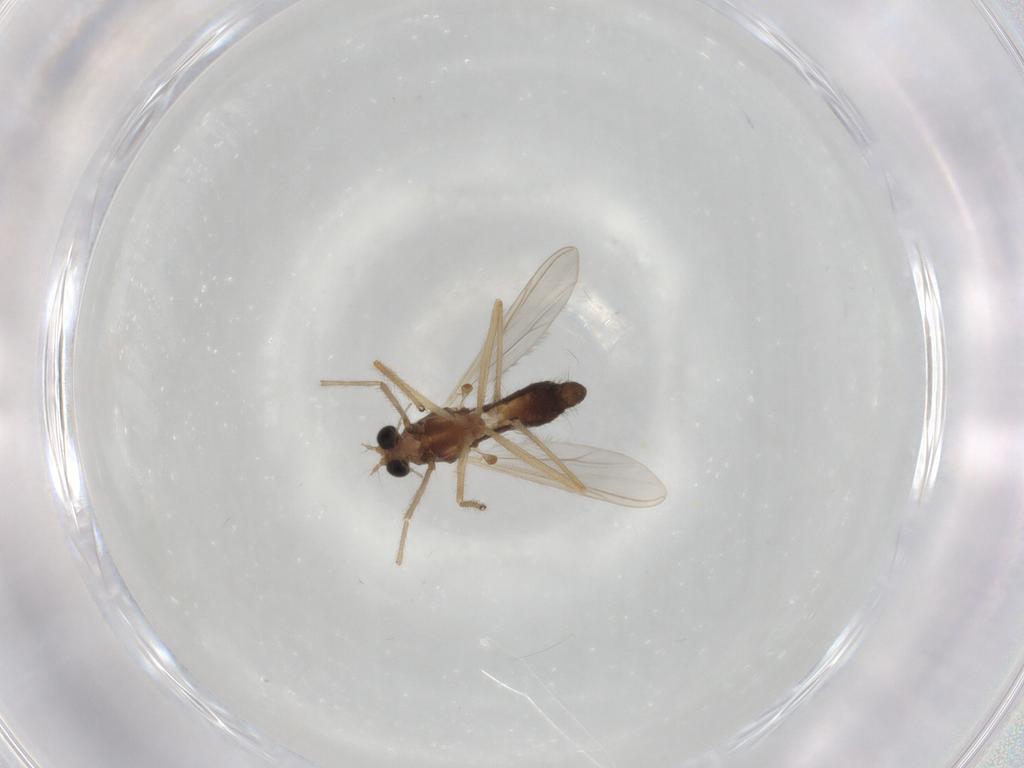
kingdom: Animalia
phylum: Arthropoda
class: Insecta
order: Diptera
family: Chironomidae
